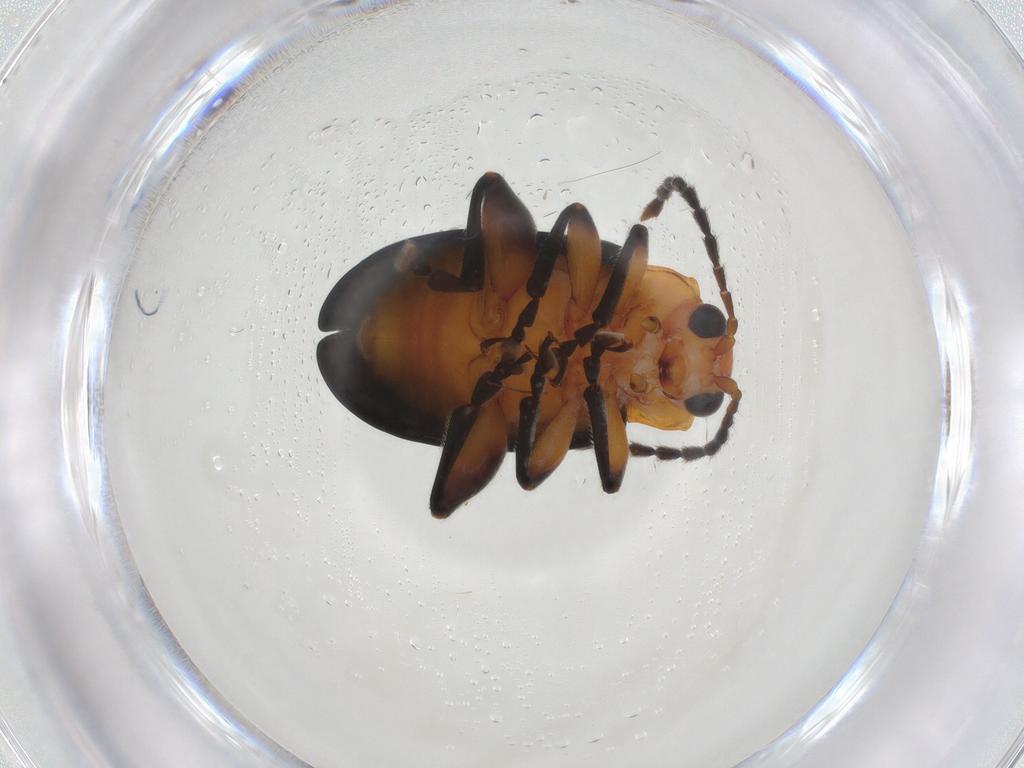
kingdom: Animalia
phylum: Arthropoda
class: Insecta
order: Coleoptera
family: Chrysomelidae
